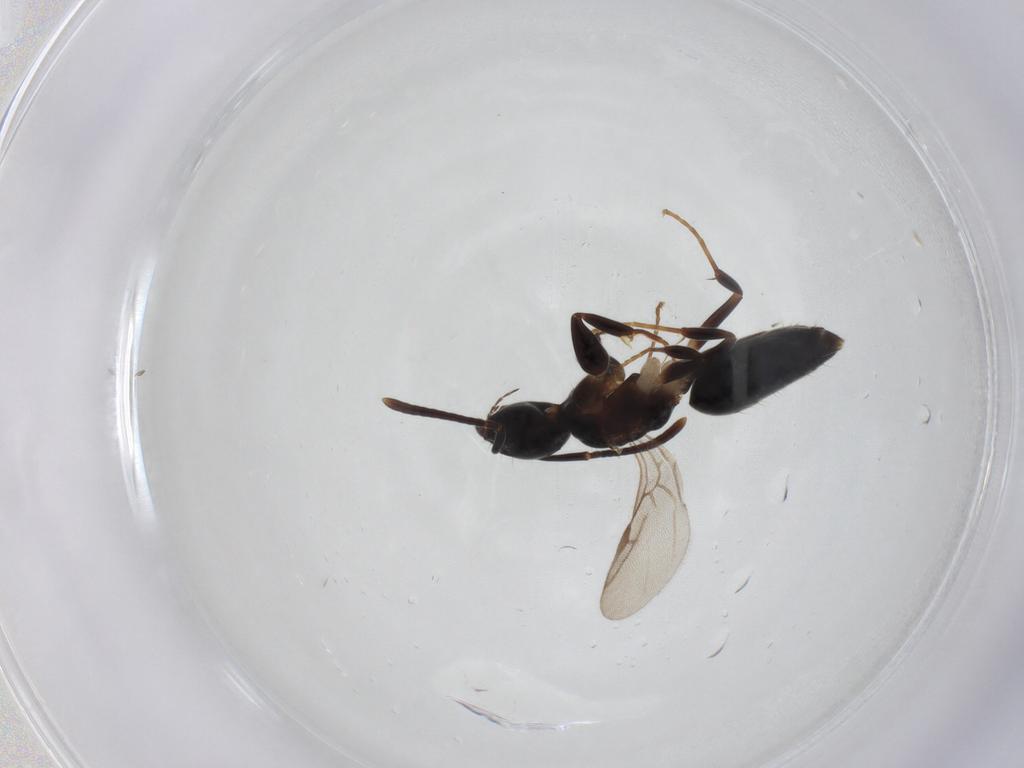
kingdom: Animalia
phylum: Arthropoda
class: Insecta
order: Hymenoptera
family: Formicidae
